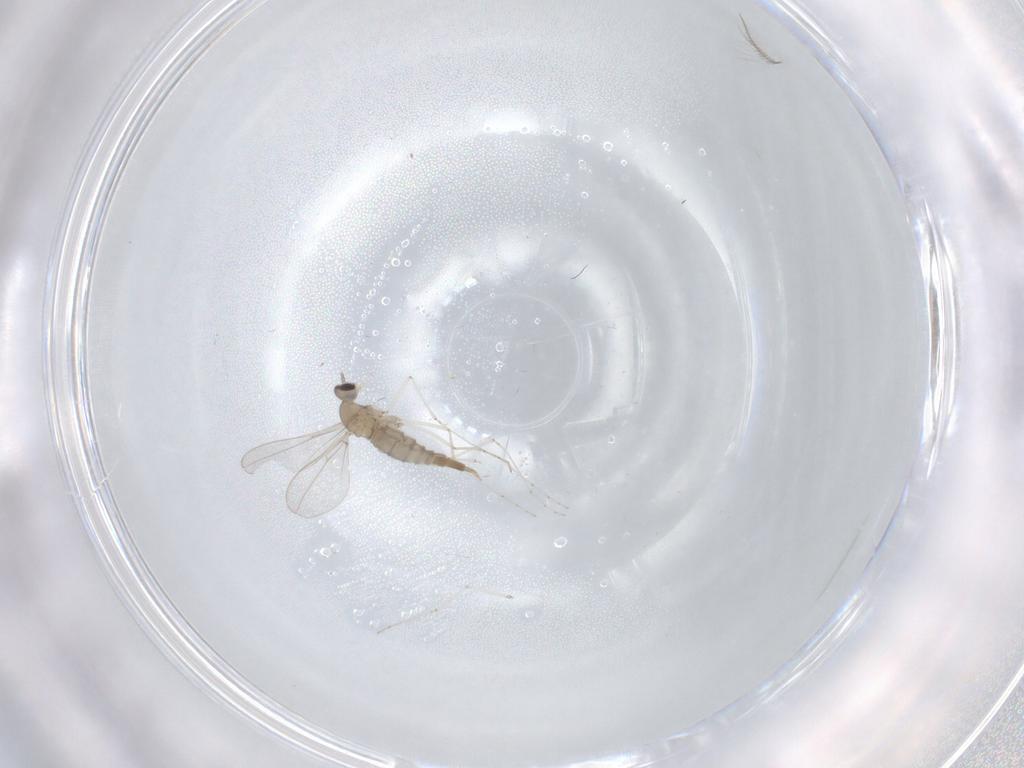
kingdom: Animalia
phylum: Arthropoda
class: Insecta
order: Diptera
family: Cecidomyiidae
